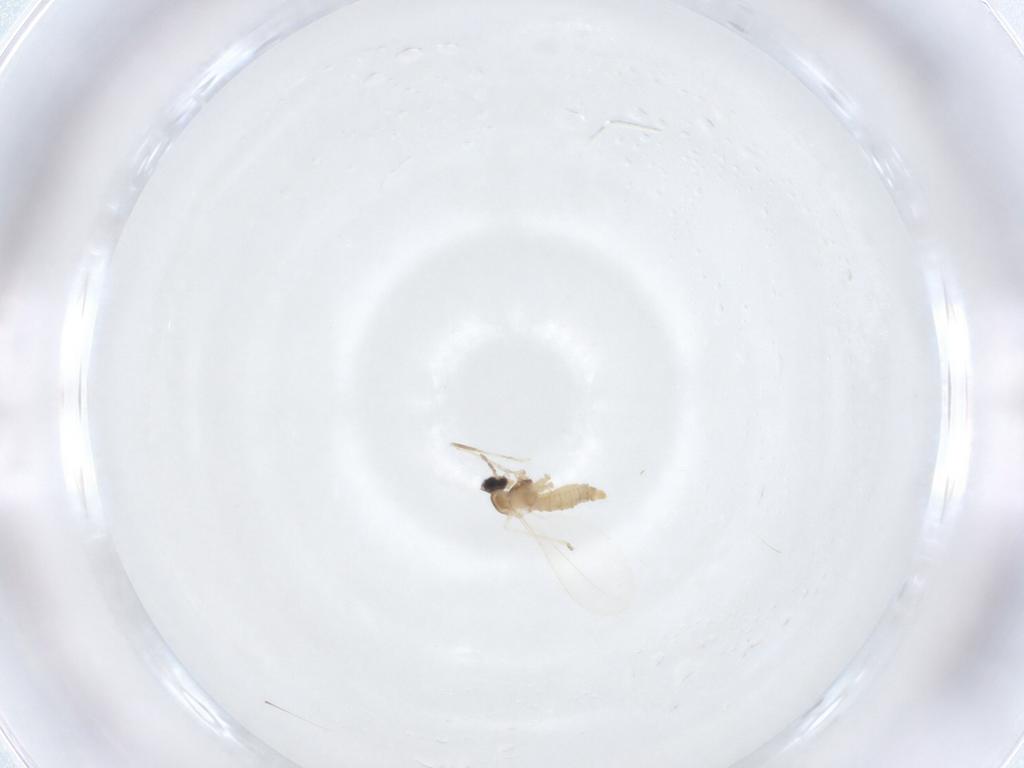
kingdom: Animalia
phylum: Arthropoda
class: Insecta
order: Diptera
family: Cecidomyiidae
